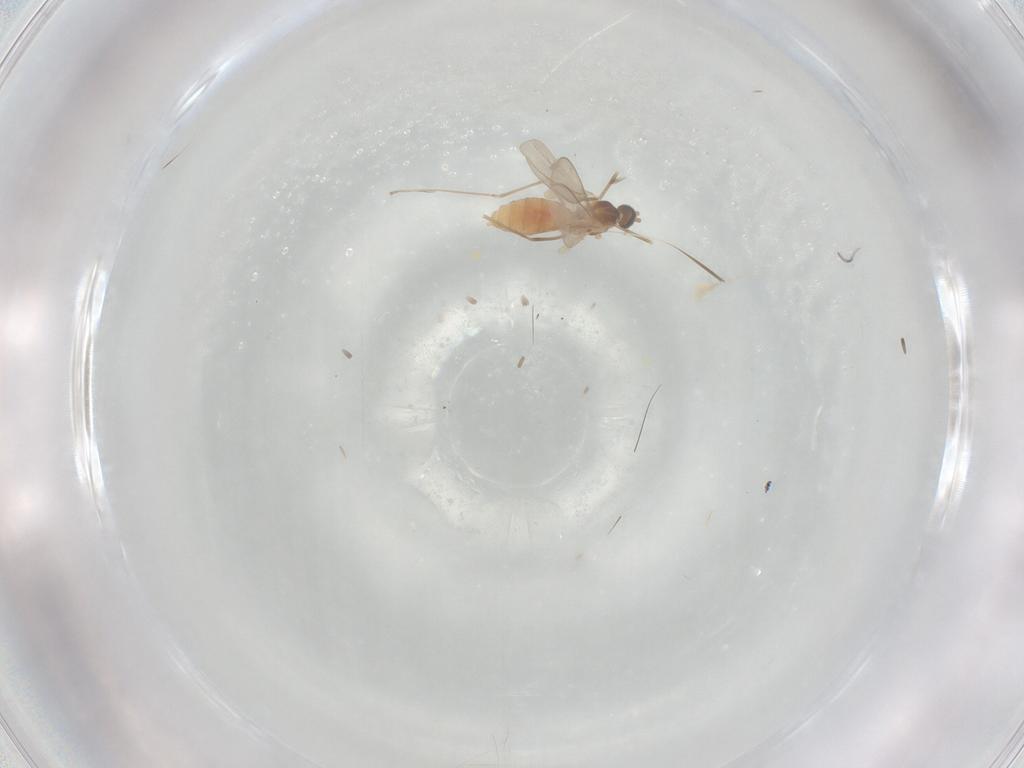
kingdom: Animalia
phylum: Arthropoda
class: Insecta
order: Diptera
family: Cecidomyiidae
